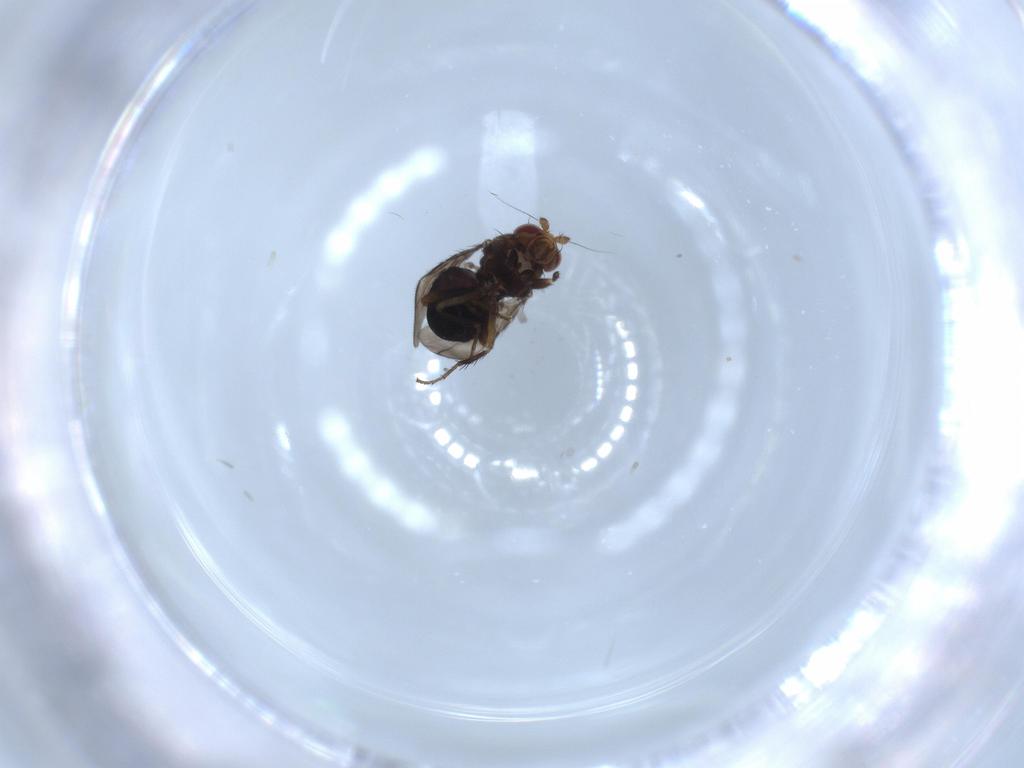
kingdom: Animalia
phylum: Arthropoda
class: Insecta
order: Diptera
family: Sphaeroceridae
